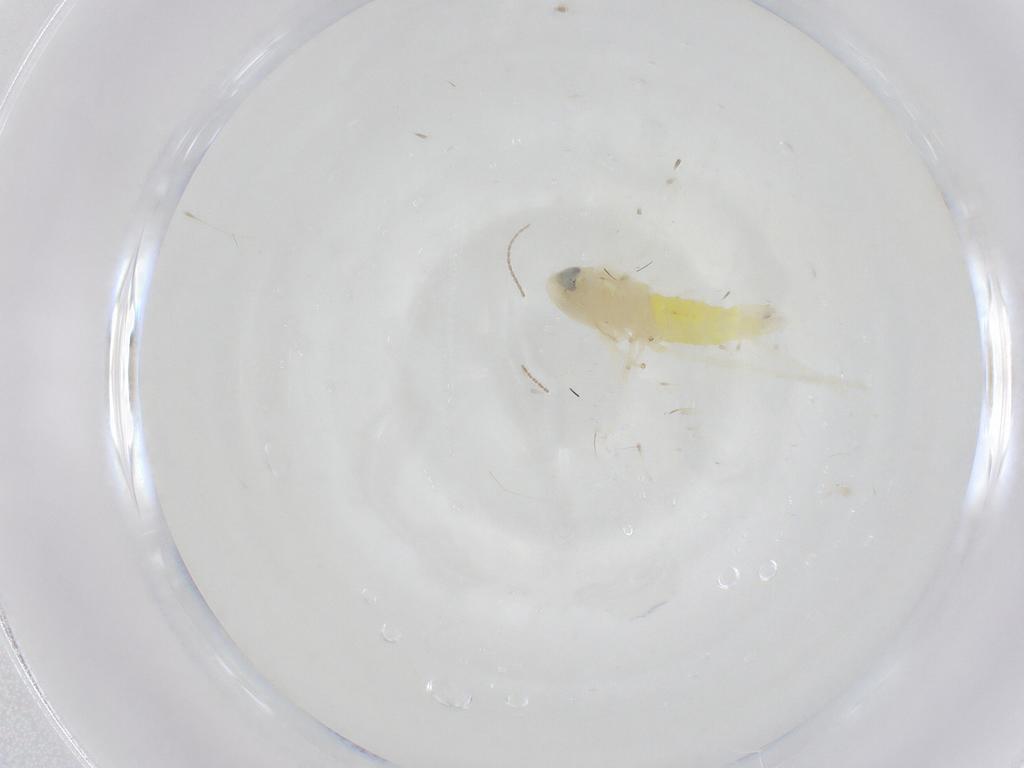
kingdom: Animalia
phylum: Arthropoda
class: Insecta
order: Hemiptera
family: Cicadellidae
